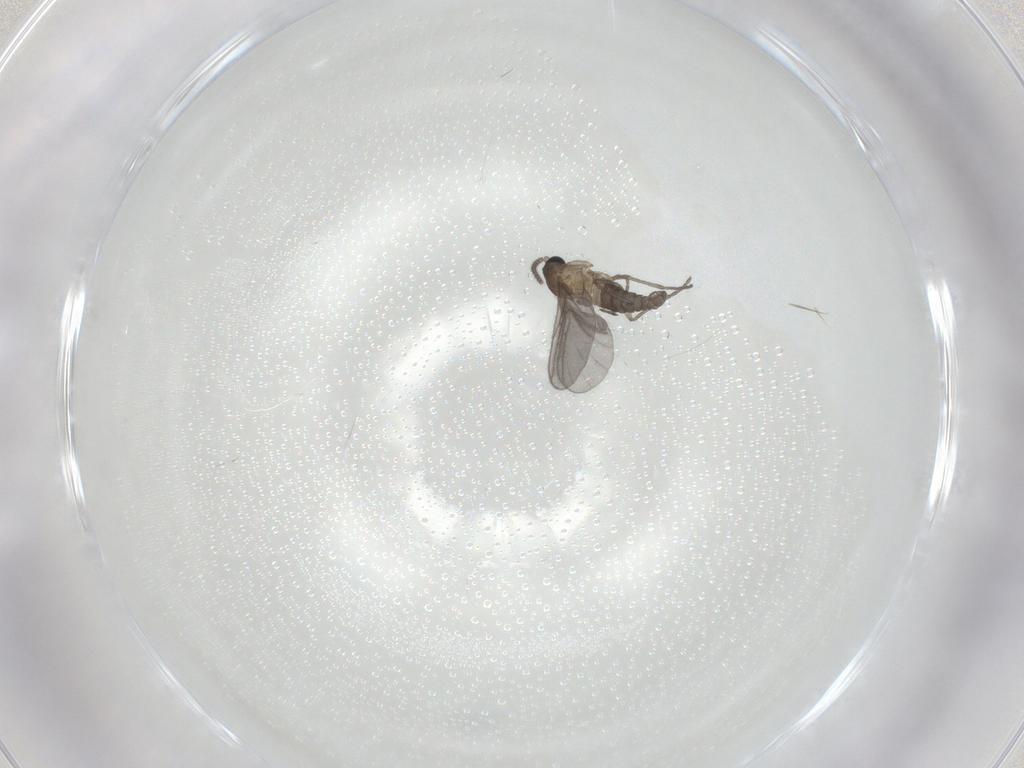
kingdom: Animalia
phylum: Arthropoda
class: Insecta
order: Diptera
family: Sciaridae
